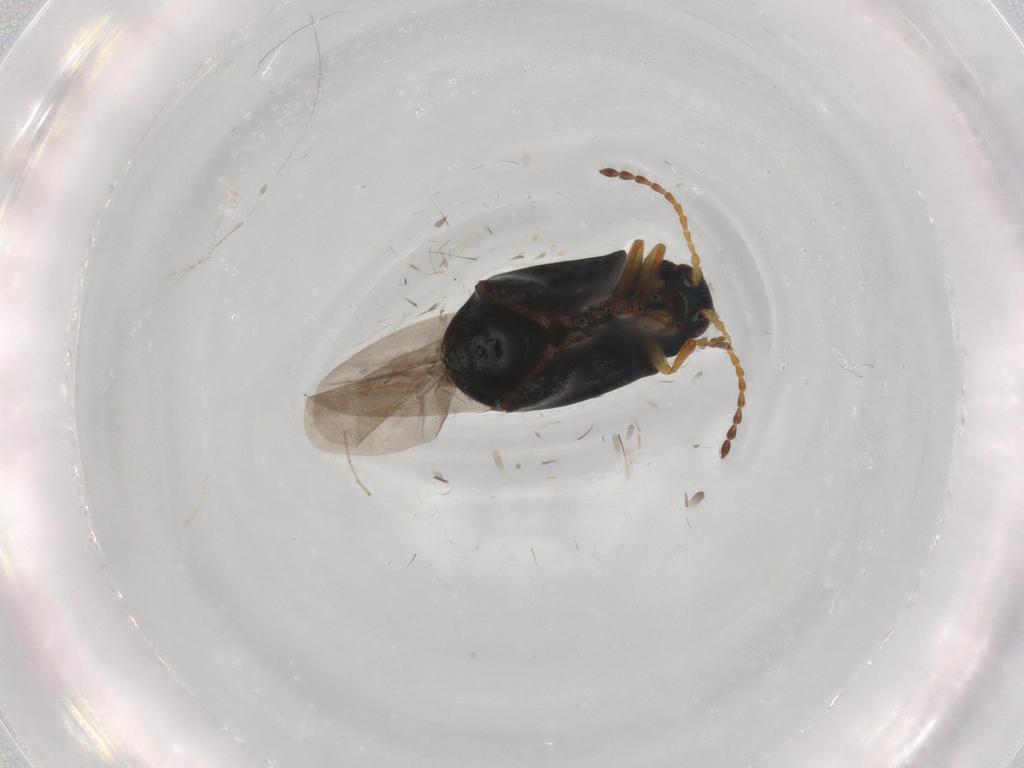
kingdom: Animalia
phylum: Arthropoda
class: Insecta
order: Coleoptera
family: Chrysomelidae
